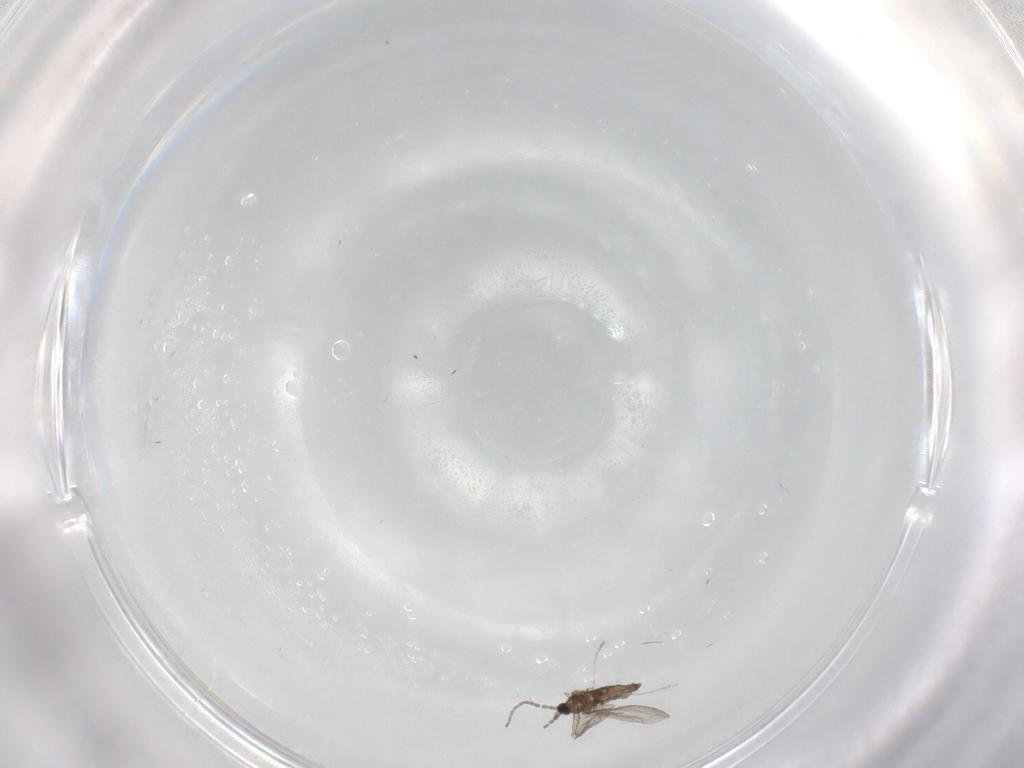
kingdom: Animalia
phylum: Arthropoda
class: Insecta
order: Diptera
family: Cecidomyiidae
